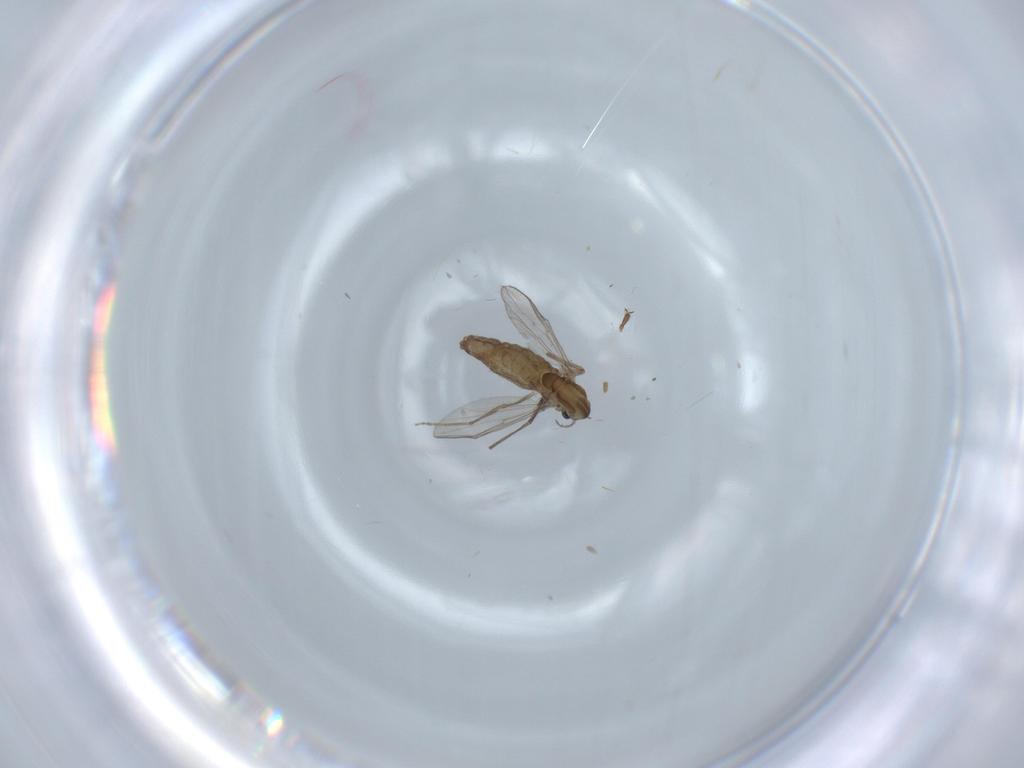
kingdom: Animalia
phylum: Arthropoda
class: Insecta
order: Diptera
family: Chironomidae
